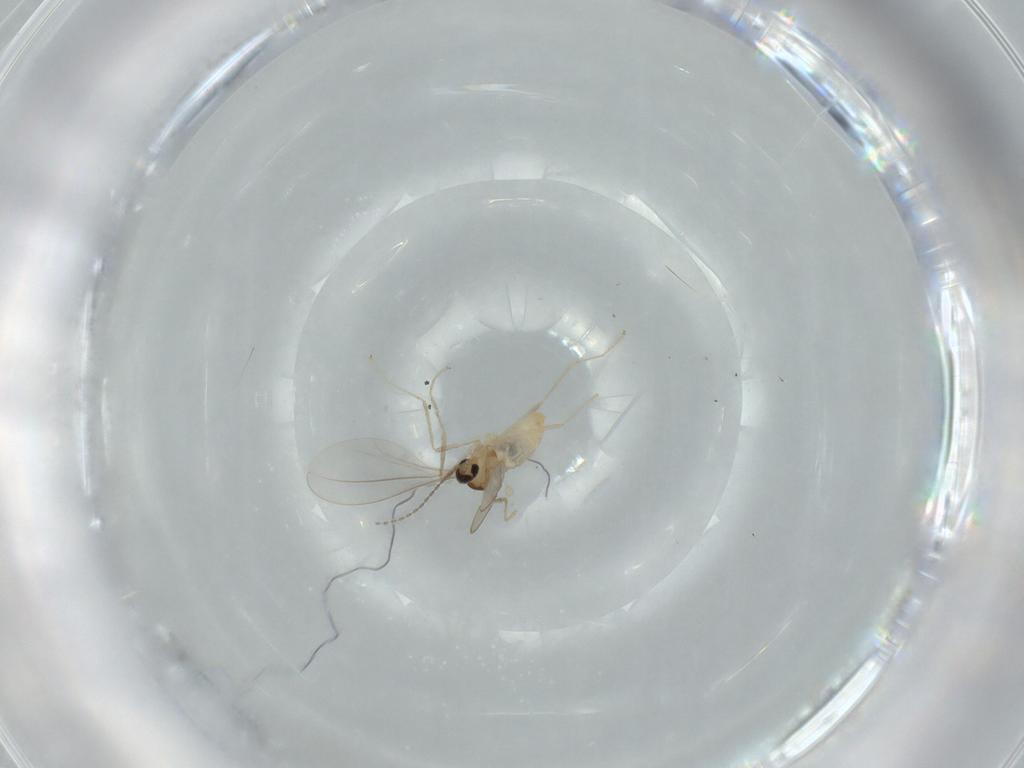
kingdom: Animalia
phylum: Arthropoda
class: Insecta
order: Diptera
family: Cecidomyiidae
